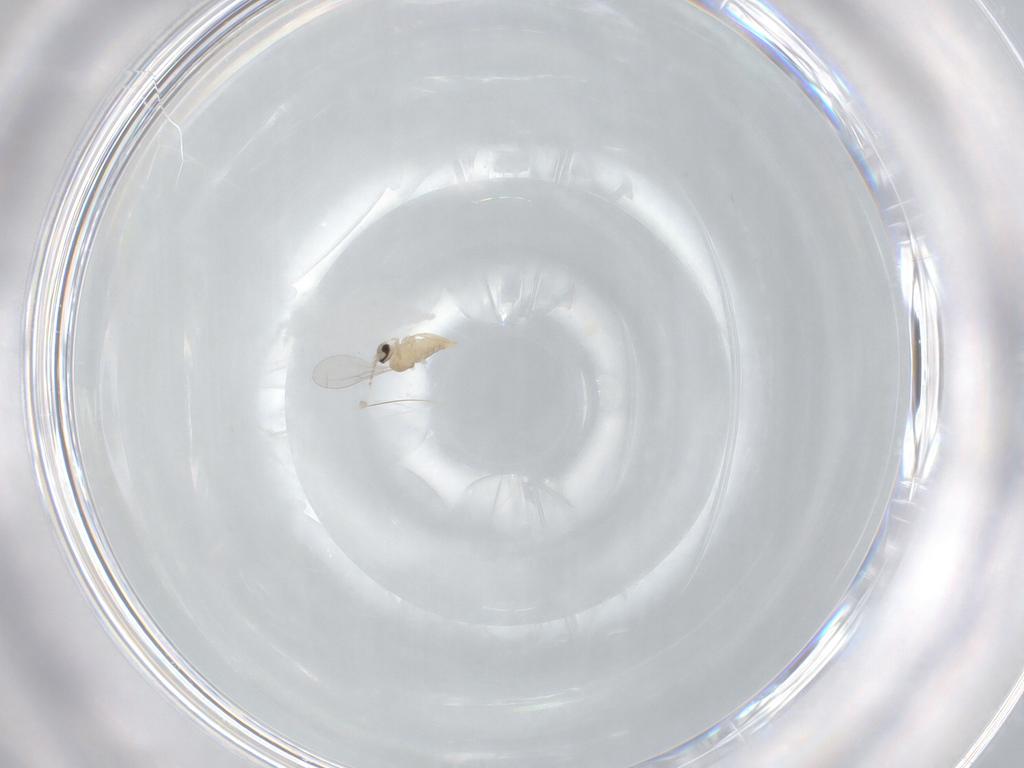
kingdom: Animalia
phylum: Arthropoda
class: Insecta
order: Diptera
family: Cecidomyiidae
